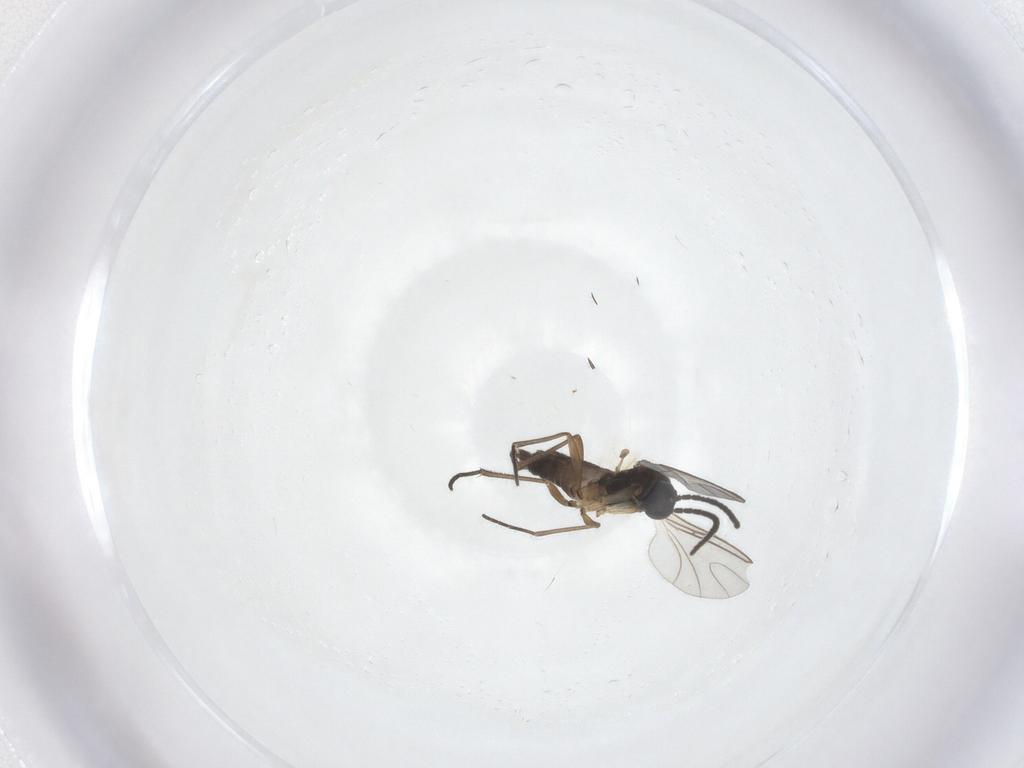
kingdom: Animalia
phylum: Arthropoda
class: Insecta
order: Diptera
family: Sciaridae
